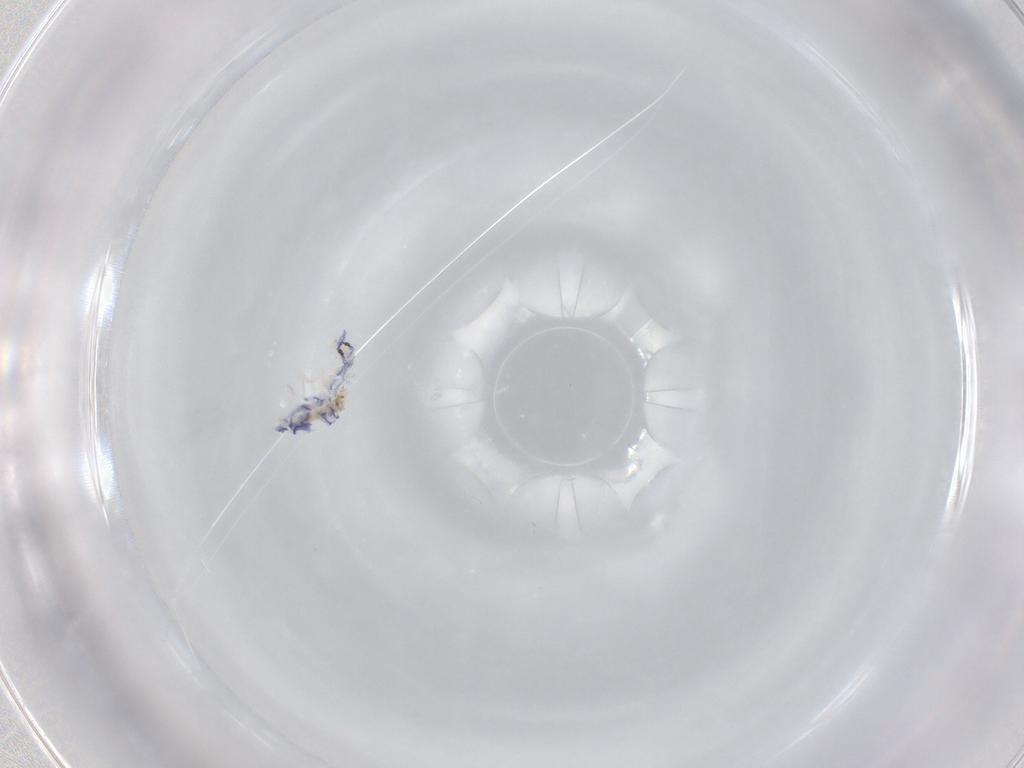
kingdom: Animalia
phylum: Arthropoda
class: Collembola
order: Entomobryomorpha
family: Entomobryidae
